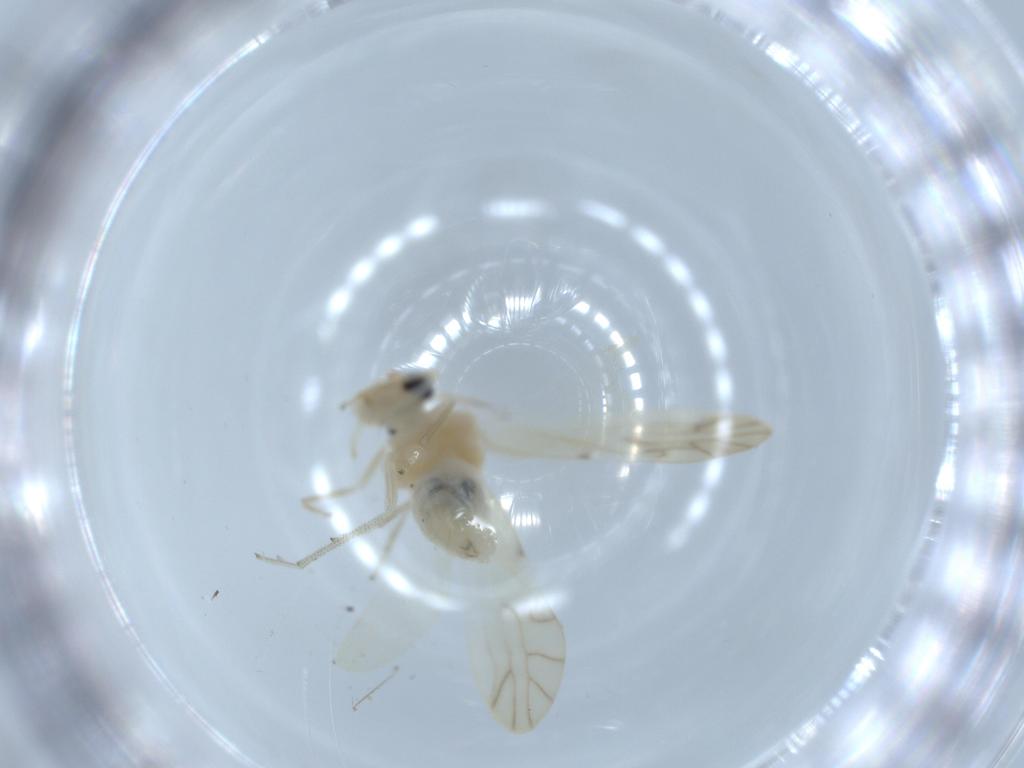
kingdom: Animalia
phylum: Arthropoda
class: Insecta
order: Psocodea
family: Caeciliusidae
